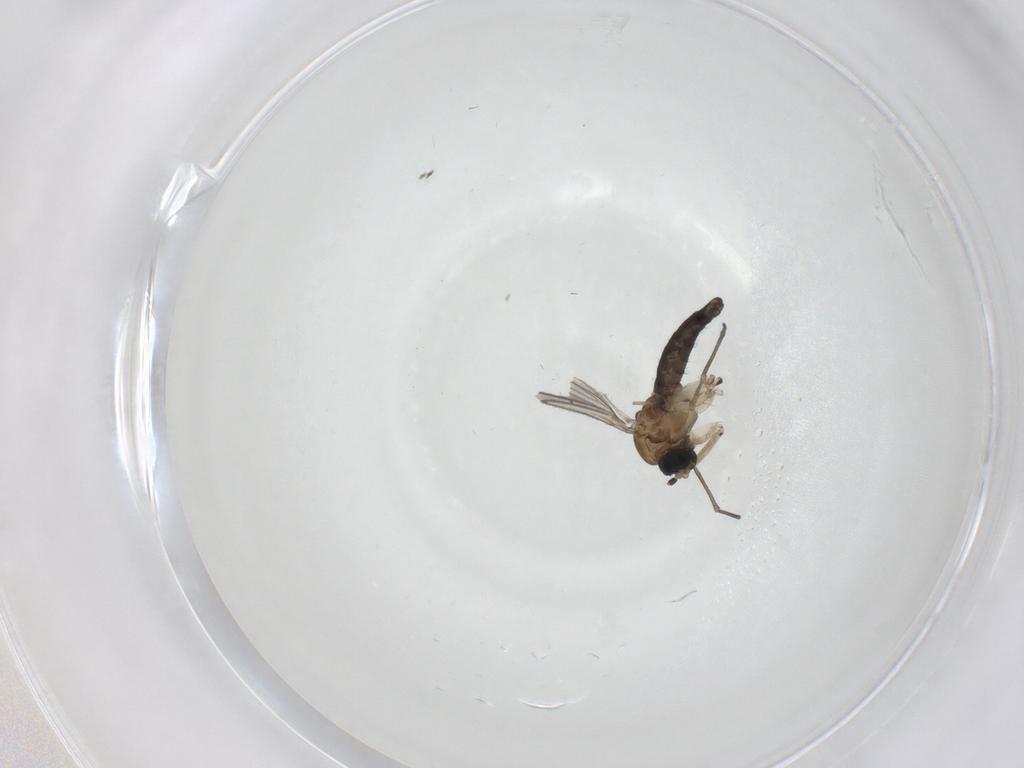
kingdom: Animalia
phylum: Arthropoda
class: Insecta
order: Diptera
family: Sciaridae
